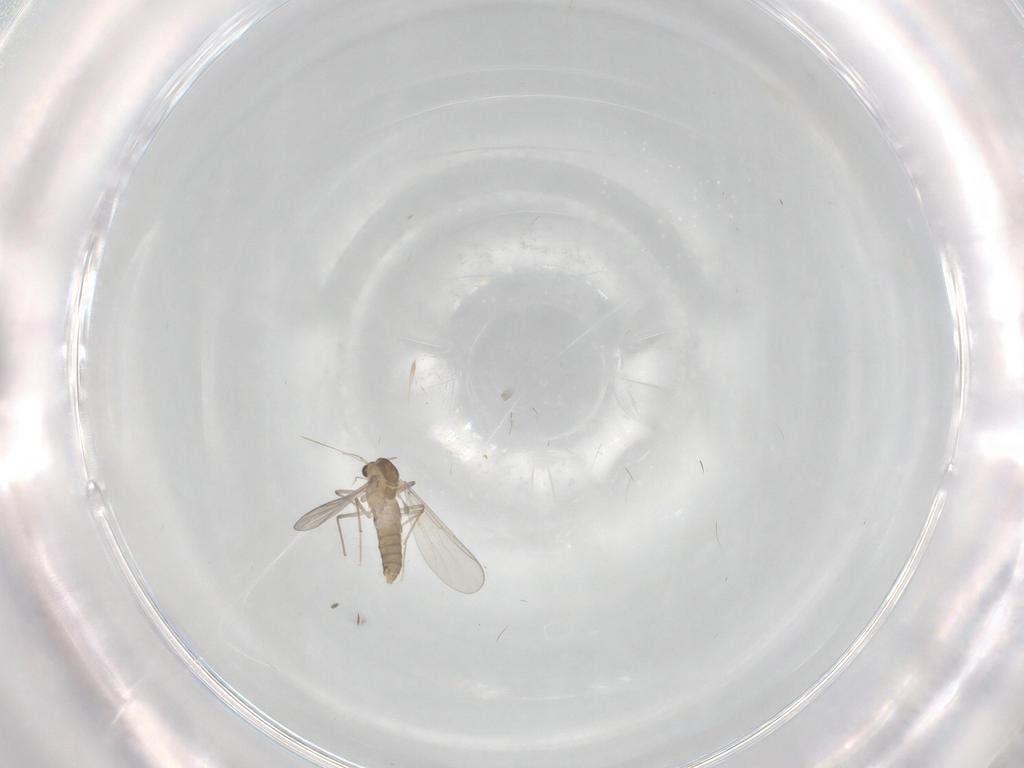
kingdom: Animalia
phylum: Arthropoda
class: Insecta
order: Diptera
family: Chironomidae
